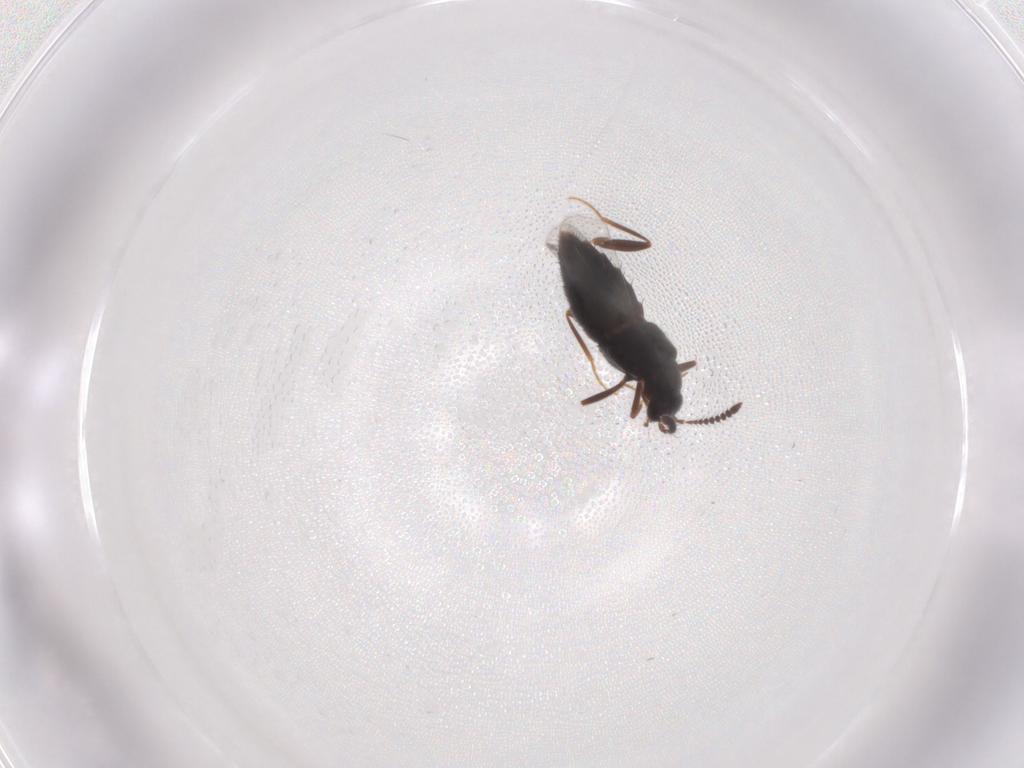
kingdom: Animalia
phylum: Arthropoda
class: Insecta
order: Coleoptera
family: Staphylinidae
